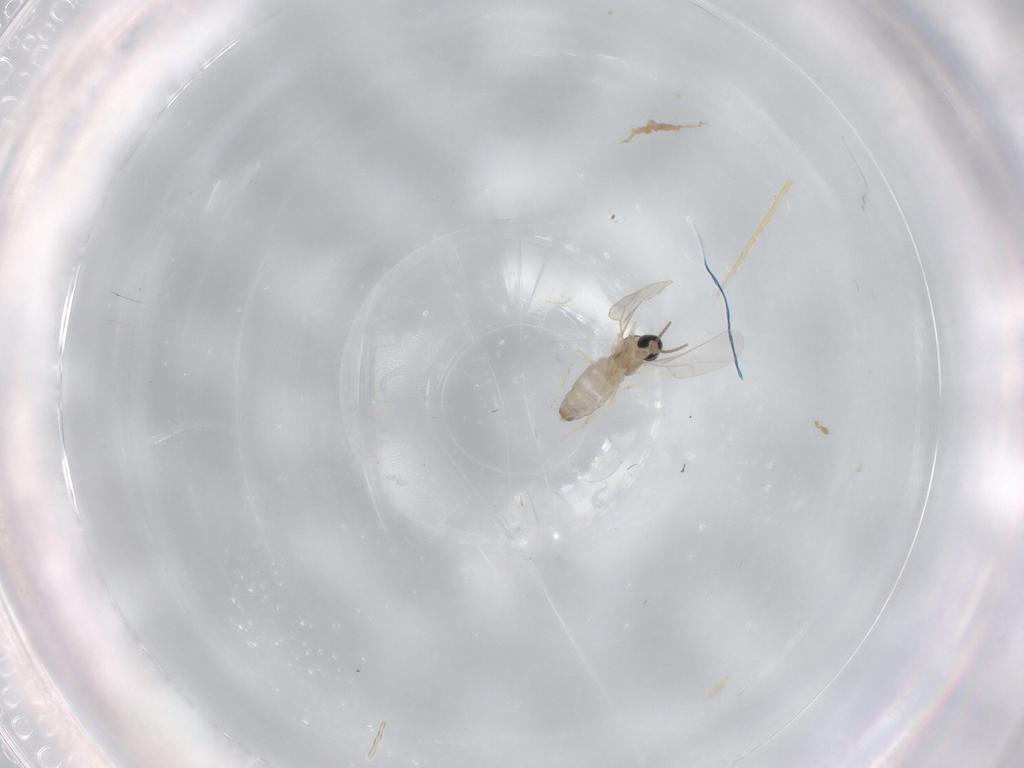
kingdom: Animalia
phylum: Arthropoda
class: Insecta
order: Diptera
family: Cecidomyiidae
